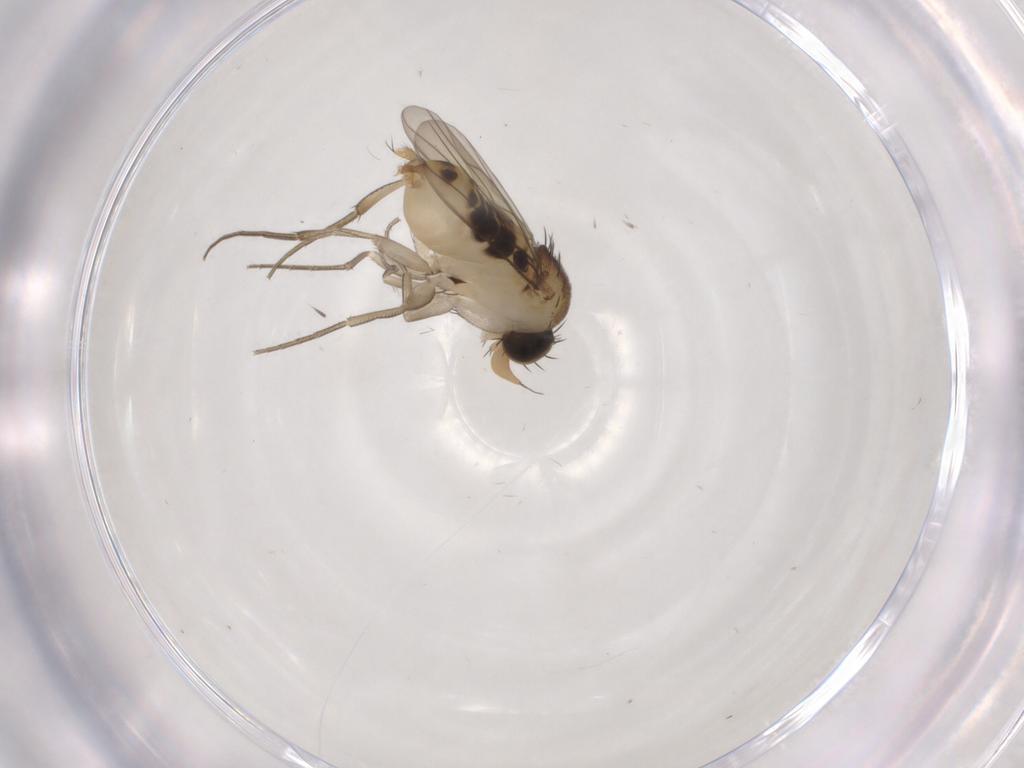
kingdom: Animalia
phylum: Arthropoda
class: Insecta
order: Diptera
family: Phoridae
